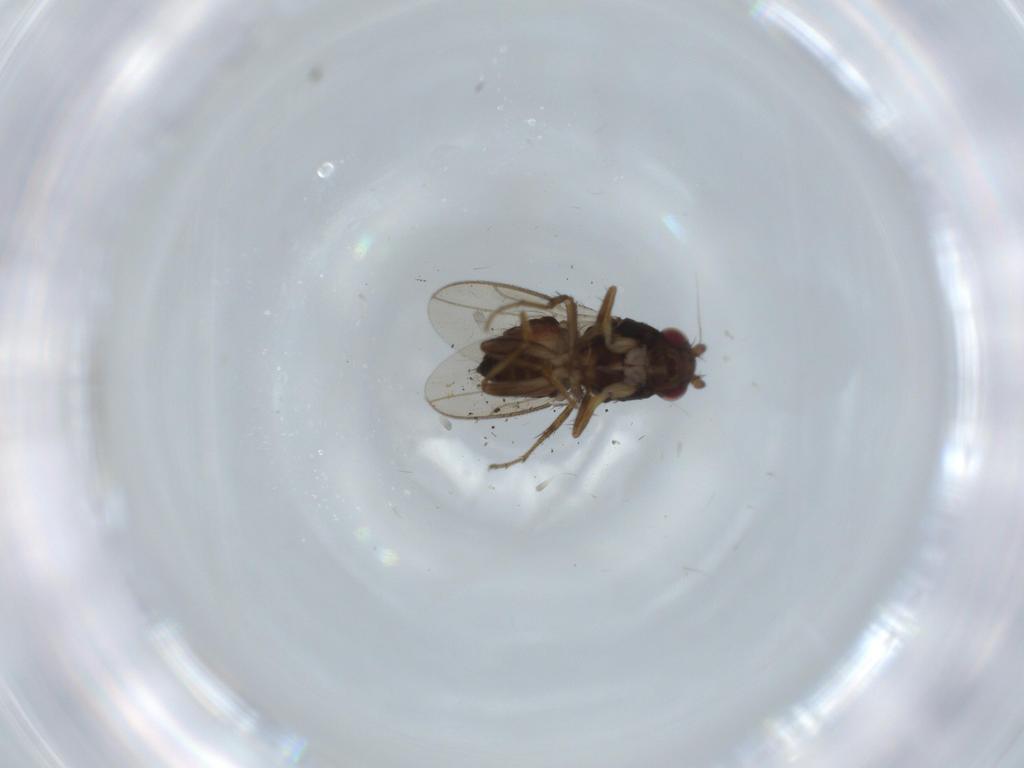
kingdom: Animalia
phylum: Arthropoda
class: Insecta
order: Diptera
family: Sphaeroceridae
